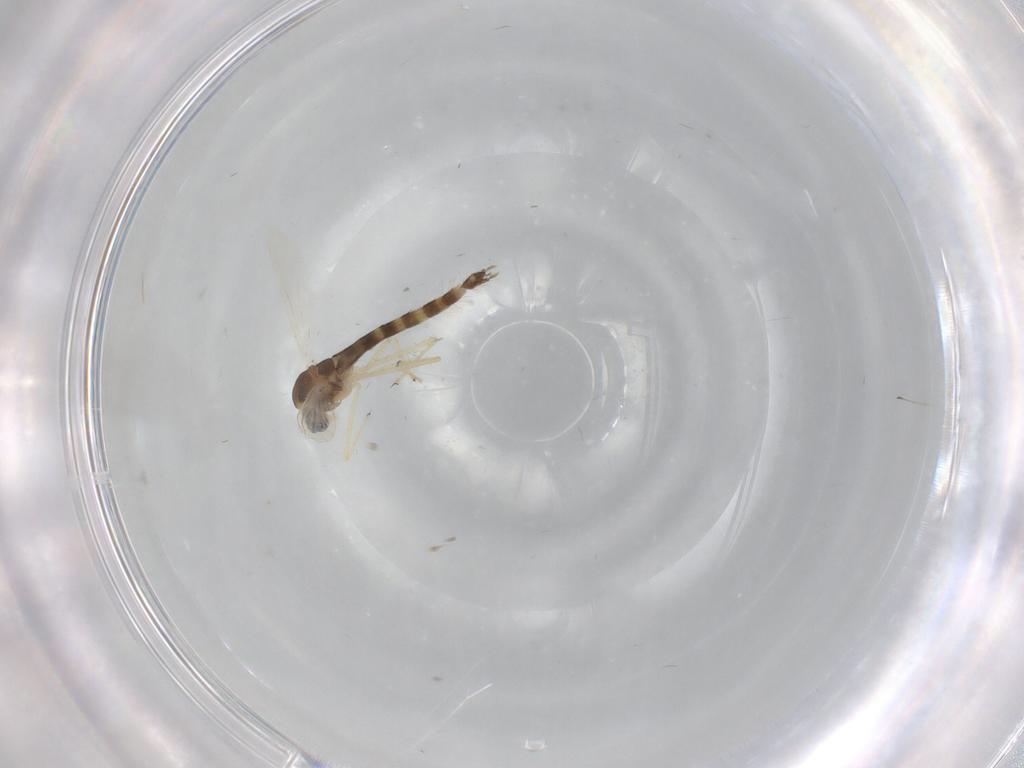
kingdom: Animalia
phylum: Arthropoda
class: Insecta
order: Diptera
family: Chironomidae
